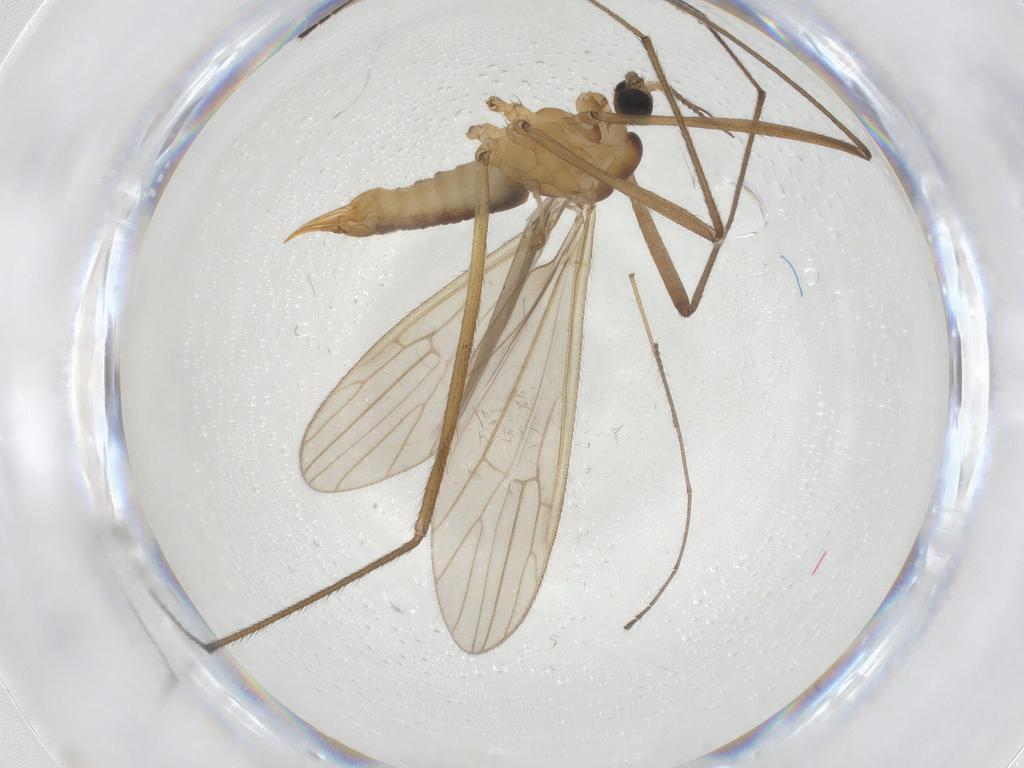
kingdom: Animalia
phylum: Arthropoda
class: Insecta
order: Diptera
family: Limoniidae
